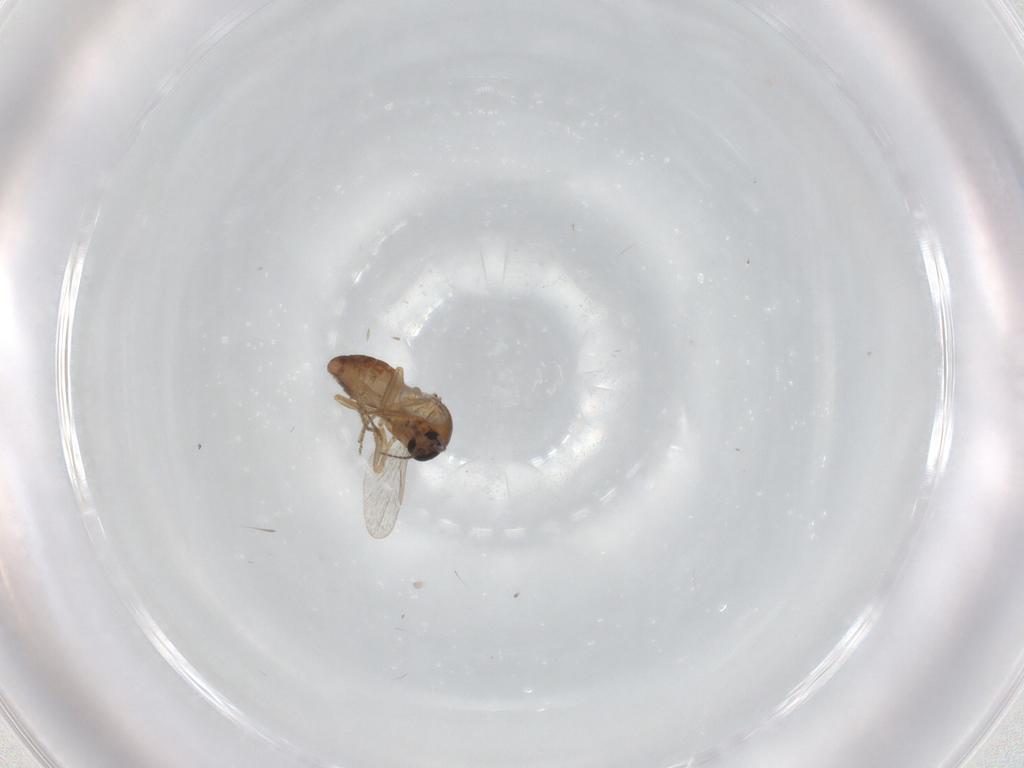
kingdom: Animalia
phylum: Arthropoda
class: Insecta
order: Diptera
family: Ceratopogonidae
